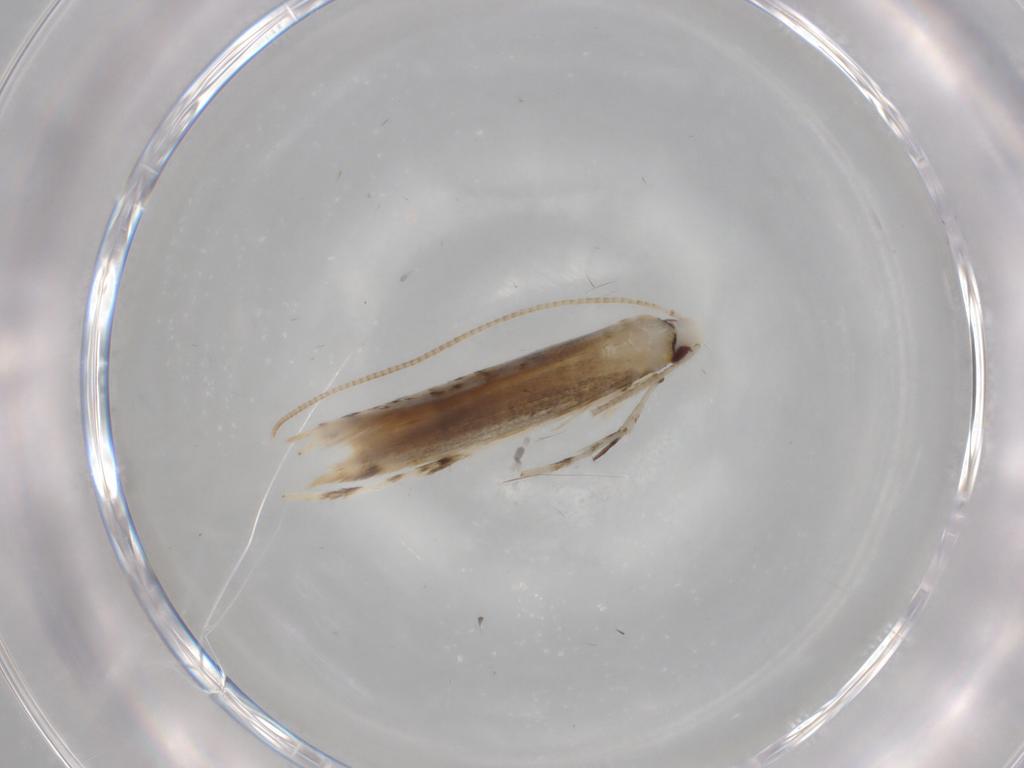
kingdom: Animalia
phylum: Arthropoda
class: Insecta
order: Lepidoptera
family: Tortricidae
